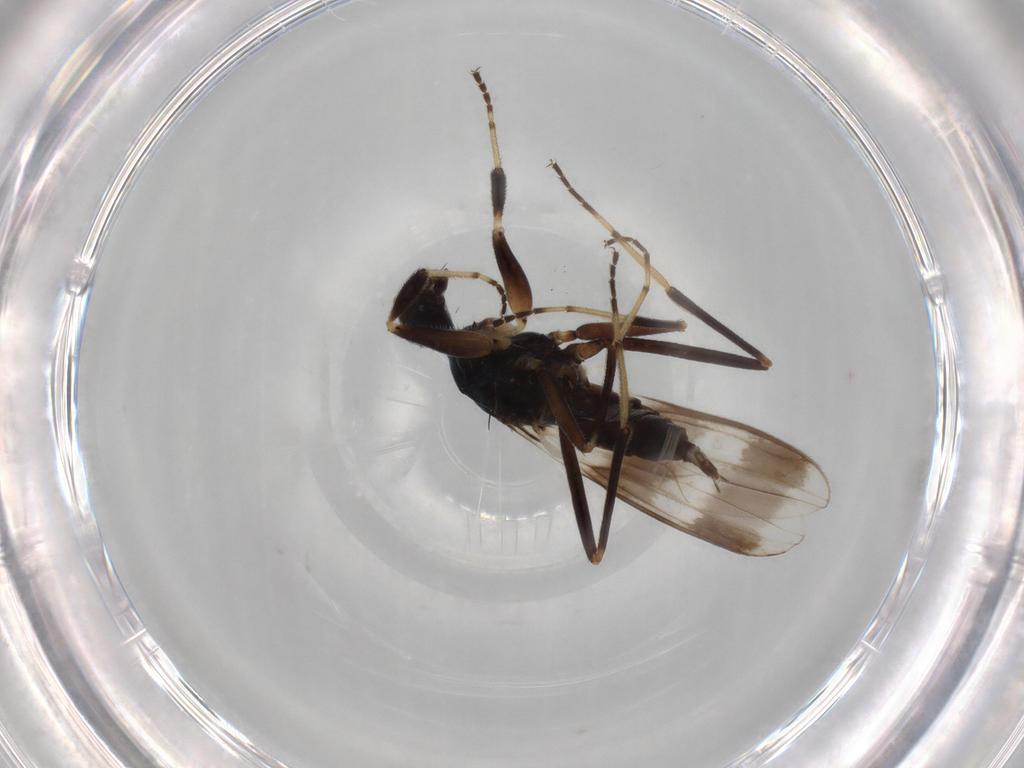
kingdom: Animalia
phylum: Arthropoda
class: Insecta
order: Diptera
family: Hybotidae
